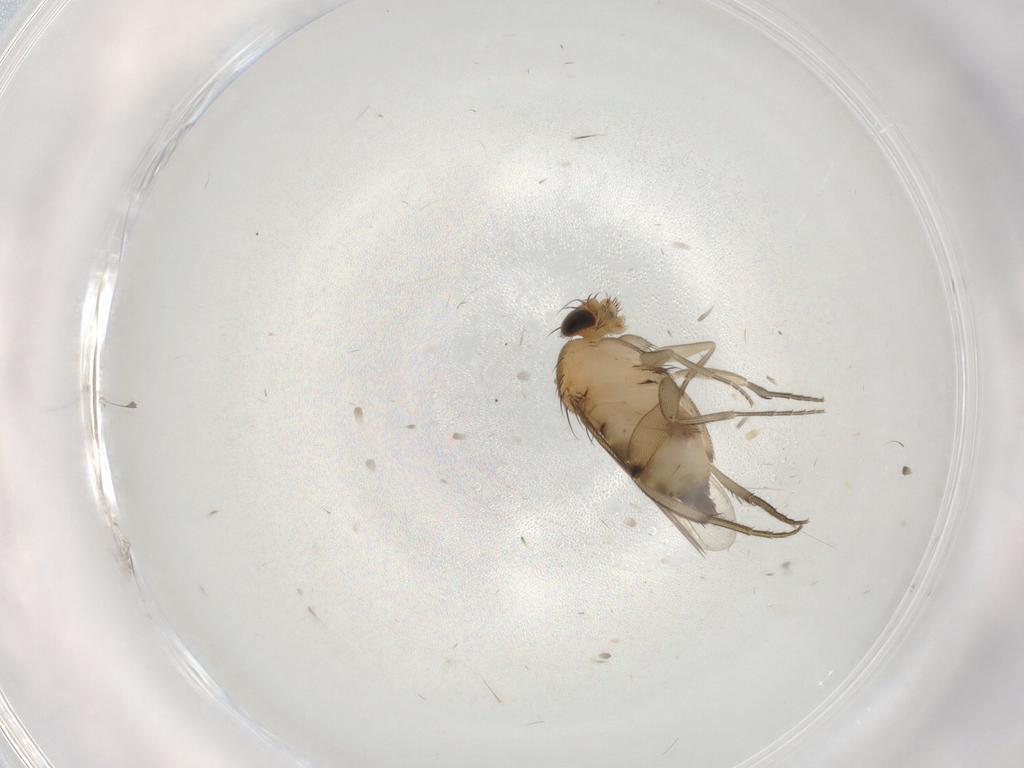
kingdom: Animalia
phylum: Arthropoda
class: Insecta
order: Diptera
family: Phoridae
